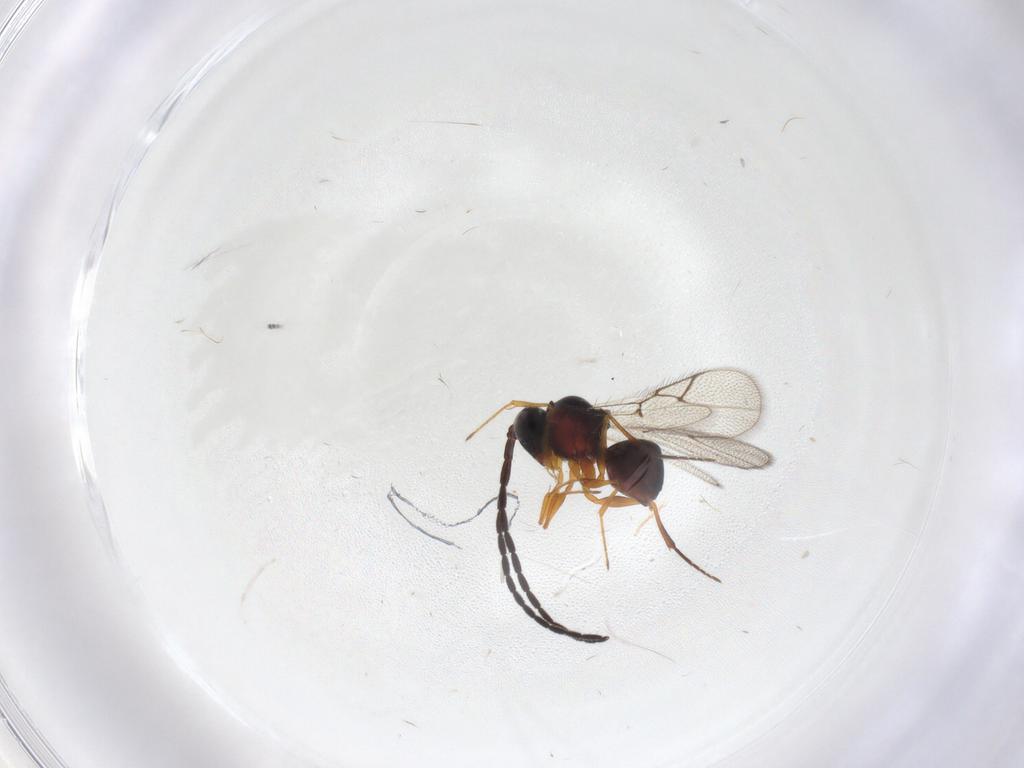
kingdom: Animalia
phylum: Arthropoda
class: Insecta
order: Hymenoptera
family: Figitidae
